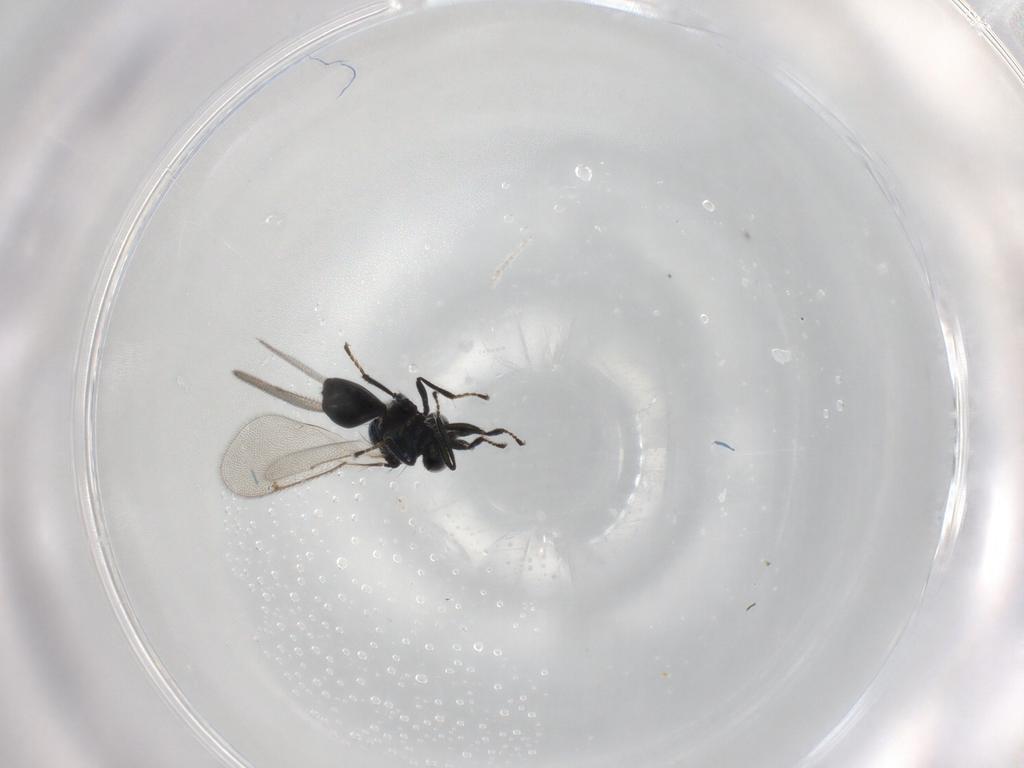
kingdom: Animalia
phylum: Arthropoda
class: Insecta
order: Hymenoptera
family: Eulophidae
